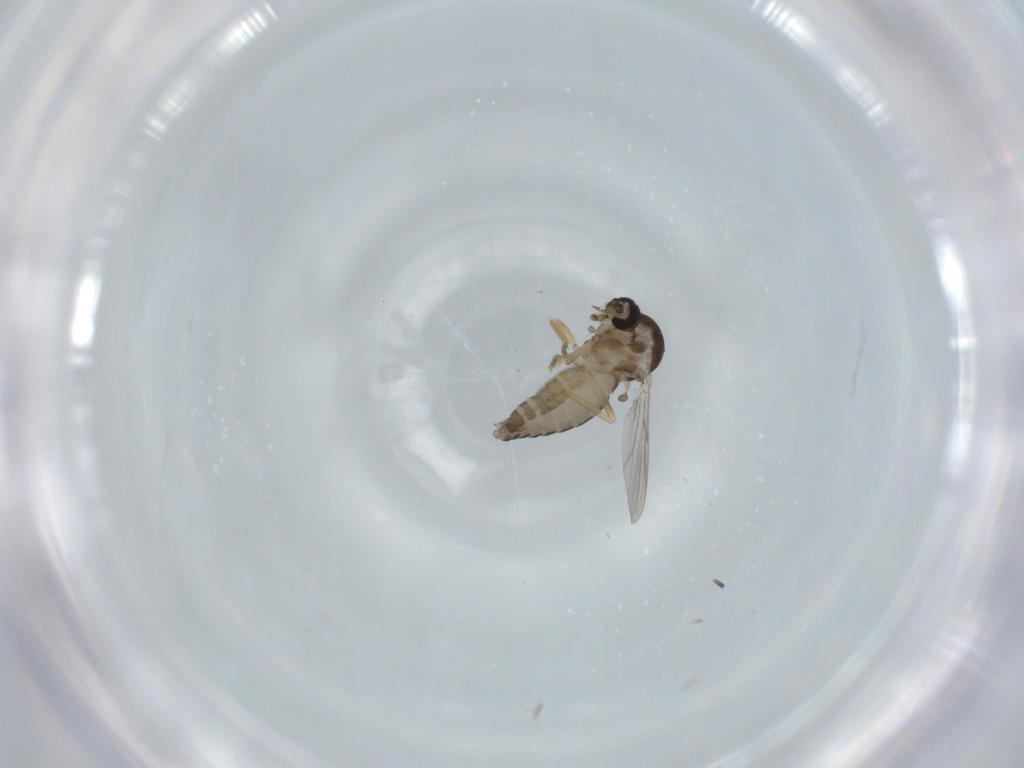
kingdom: Animalia
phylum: Arthropoda
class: Insecta
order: Diptera
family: Ceratopogonidae
